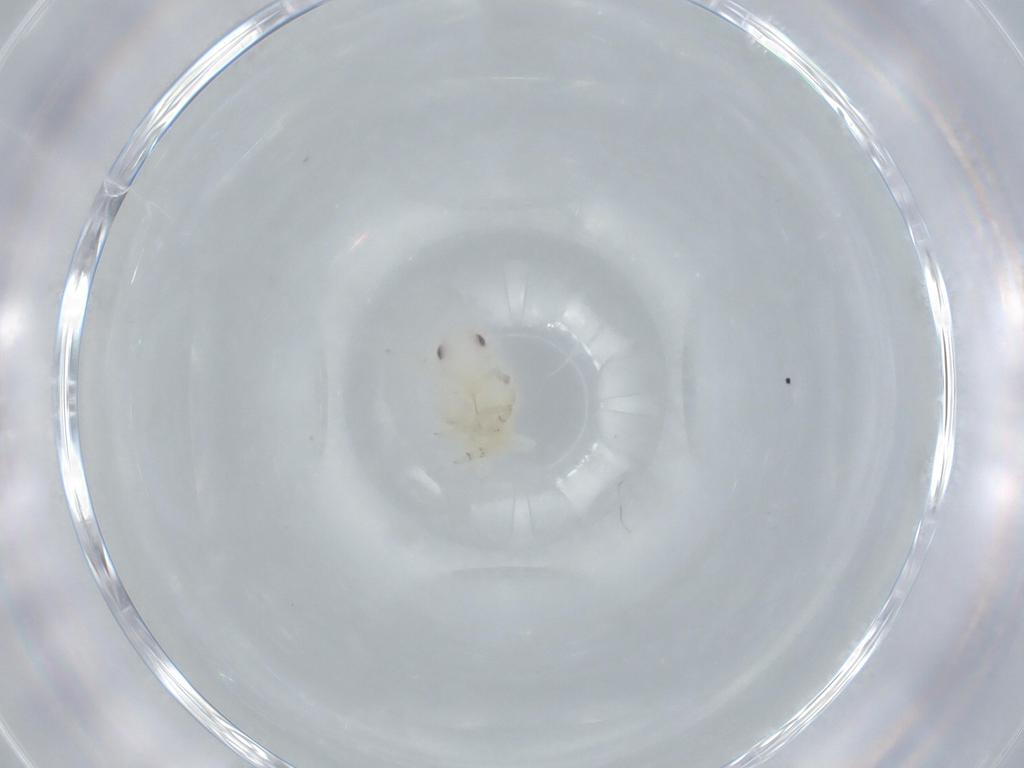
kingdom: Animalia
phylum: Arthropoda
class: Insecta
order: Hemiptera
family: Flatidae
